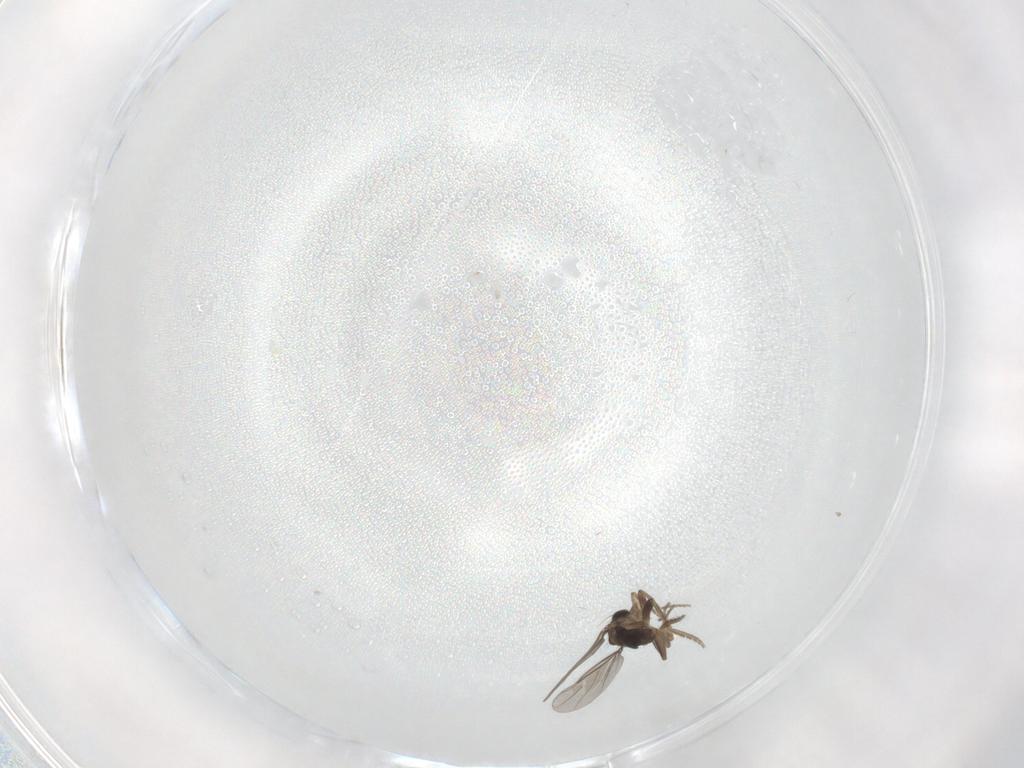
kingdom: Animalia
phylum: Arthropoda
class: Insecta
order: Diptera
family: Phoridae
